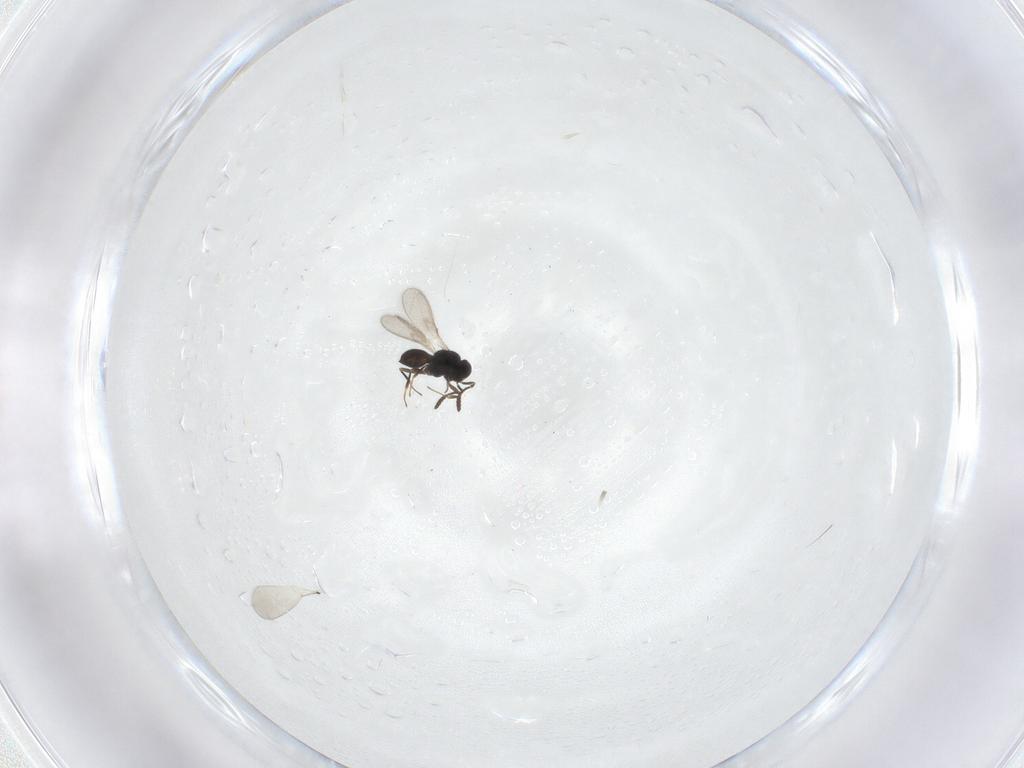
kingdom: Animalia
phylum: Arthropoda
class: Insecta
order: Hymenoptera
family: Scelionidae
